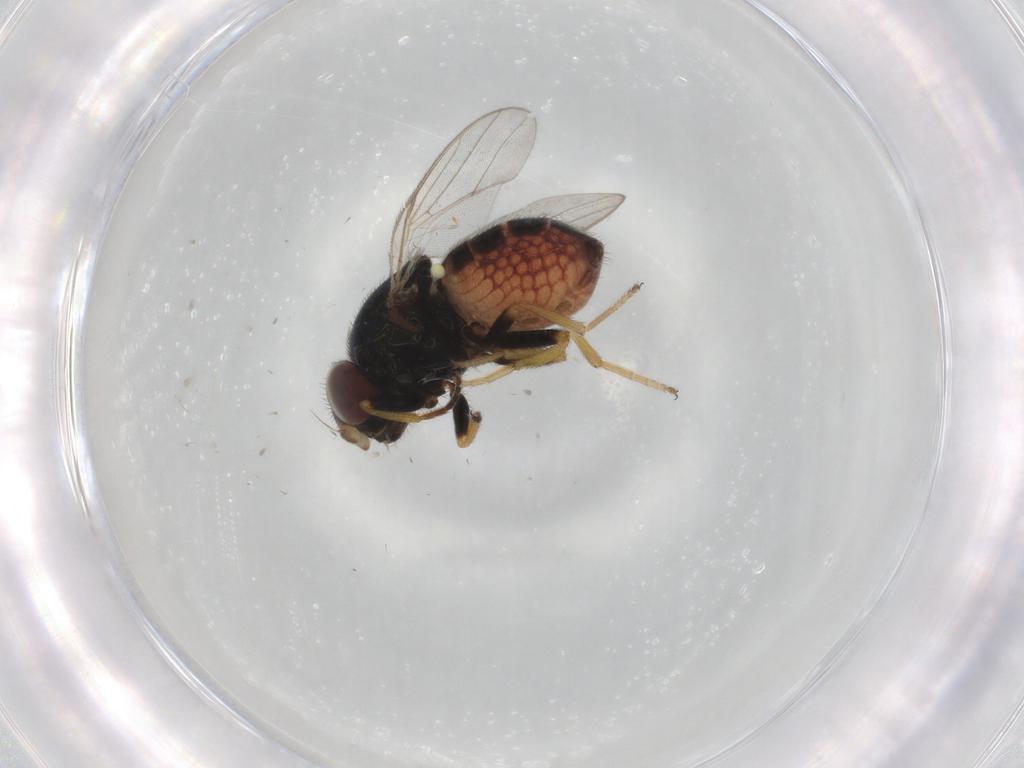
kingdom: Animalia
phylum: Arthropoda
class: Insecta
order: Diptera
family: Chloropidae
